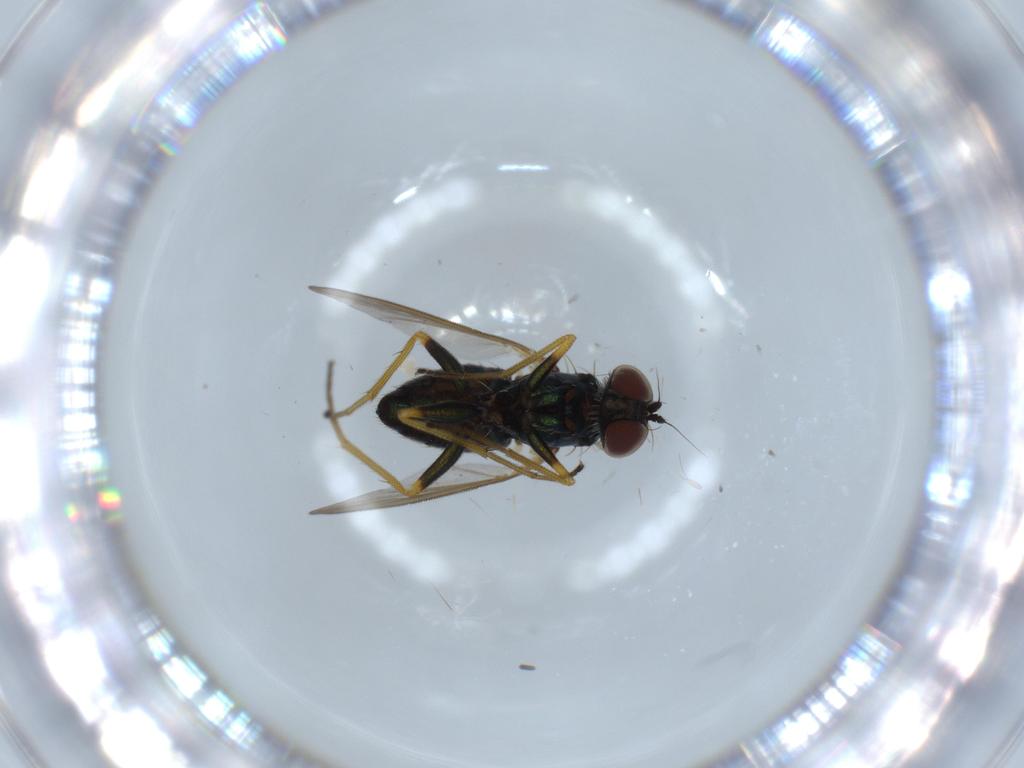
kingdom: Animalia
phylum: Arthropoda
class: Insecta
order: Diptera
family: Dolichopodidae
